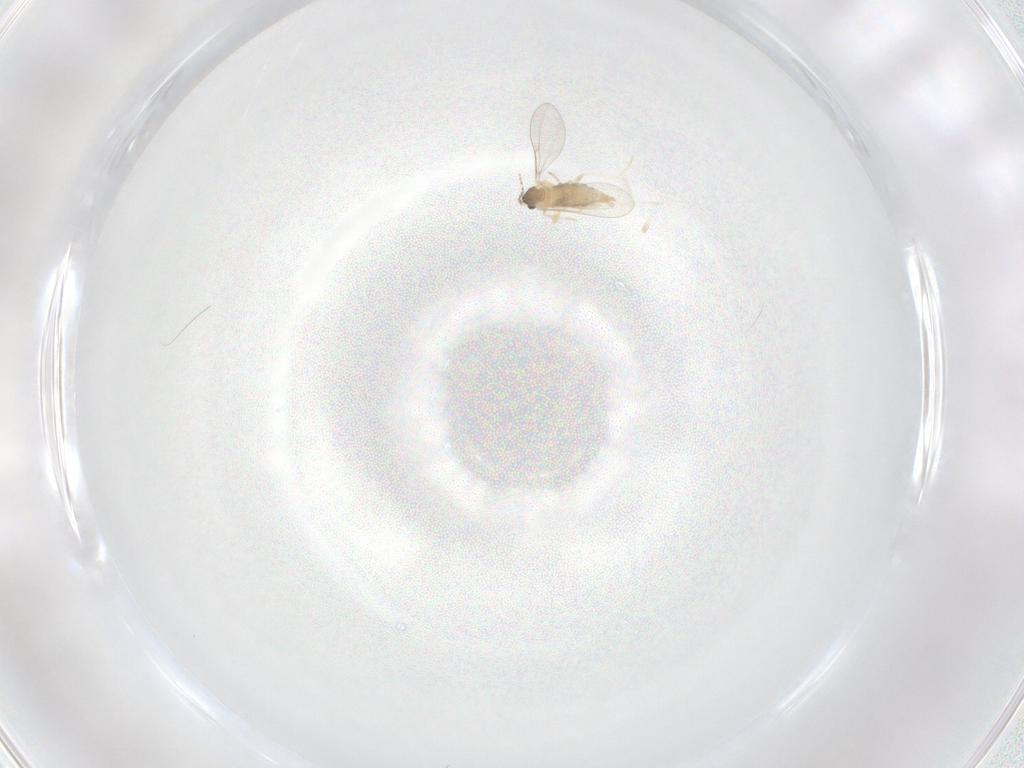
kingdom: Animalia
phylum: Arthropoda
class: Insecta
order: Diptera
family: Cecidomyiidae
